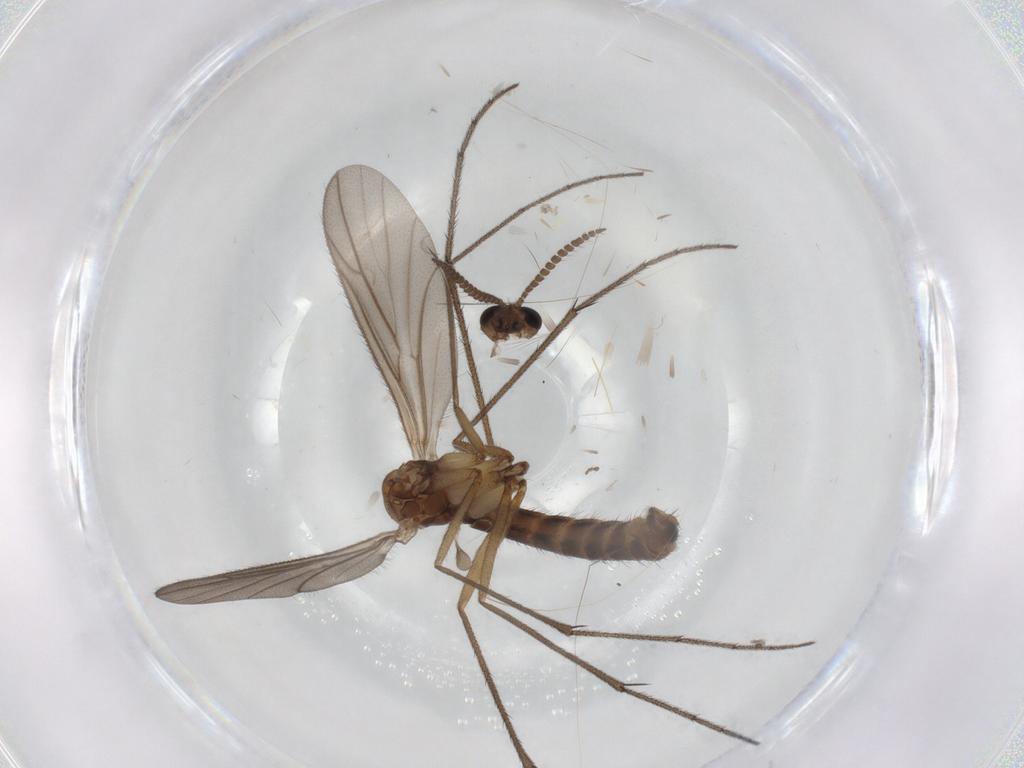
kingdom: Animalia
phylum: Arthropoda
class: Insecta
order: Diptera
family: Ditomyiidae
